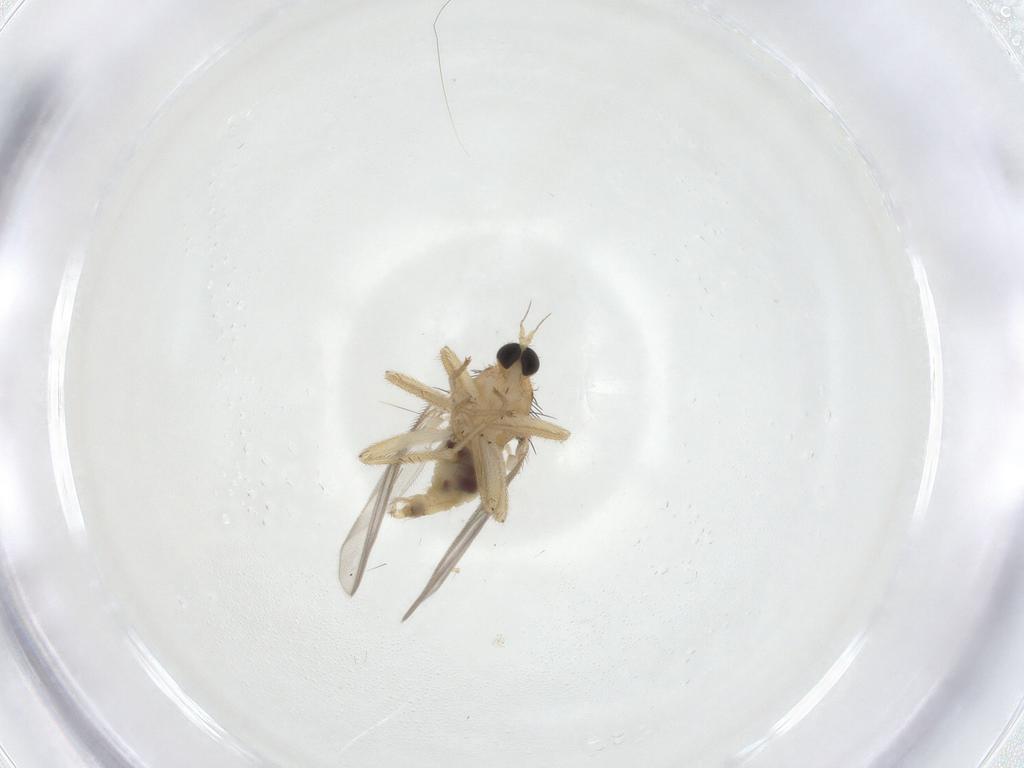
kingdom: Animalia
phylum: Arthropoda
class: Insecta
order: Diptera
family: Hybotidae
